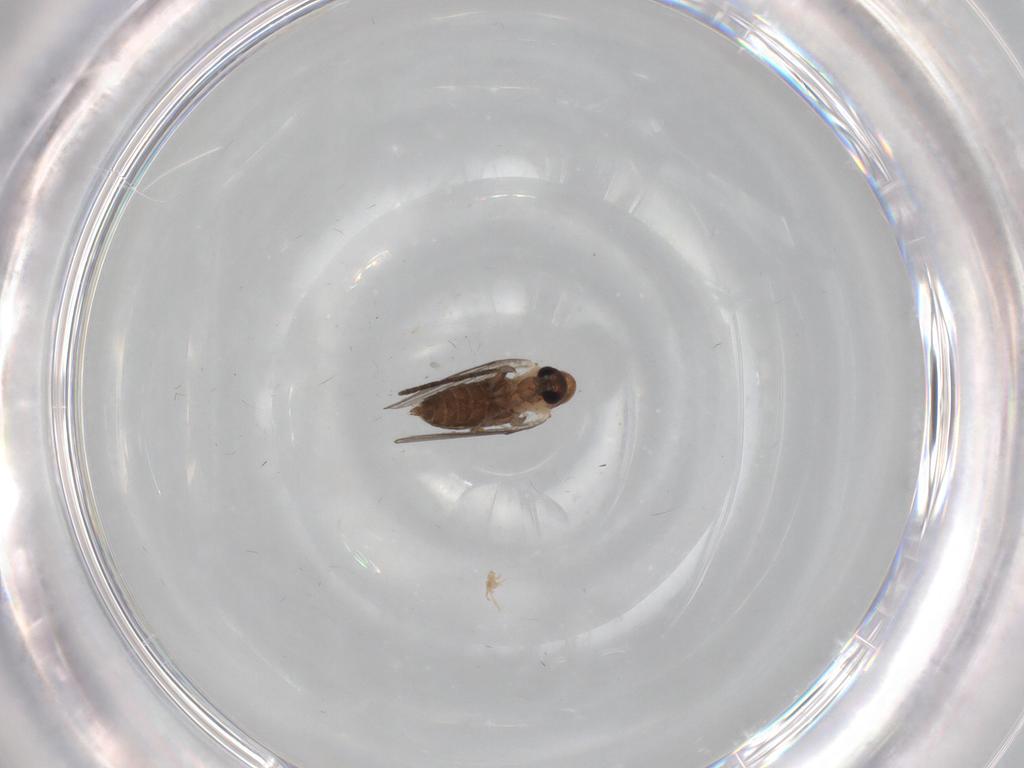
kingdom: Animalia
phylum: Arthropoda
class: Insecta
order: Diptera
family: Psychodidae
